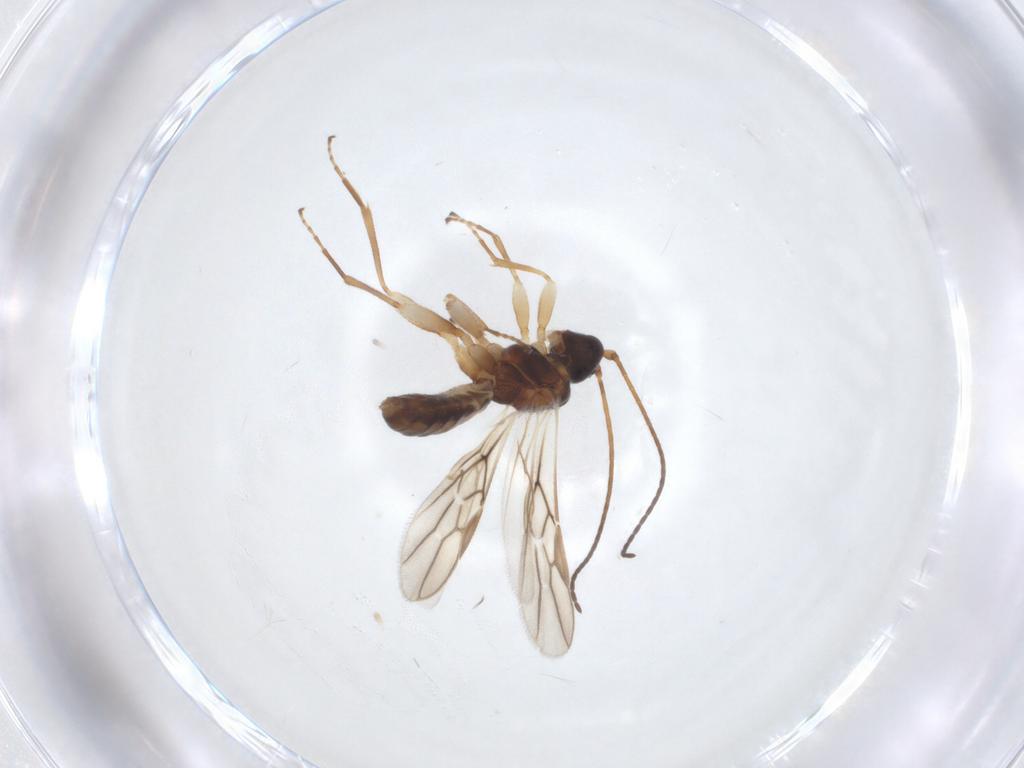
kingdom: Animalia
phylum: Arthropoda
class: Insecta
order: Hymenoptera
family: Braconidae
